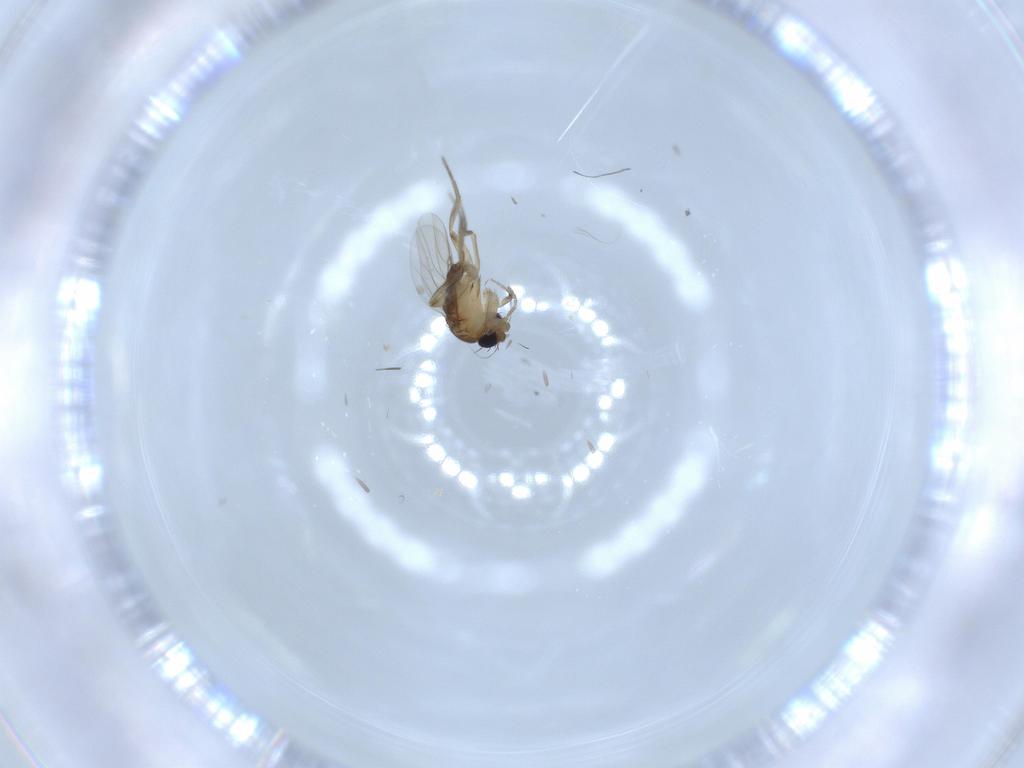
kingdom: Animalia
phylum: Arthropoda
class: Insecta
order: Diptera
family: Phoridae
